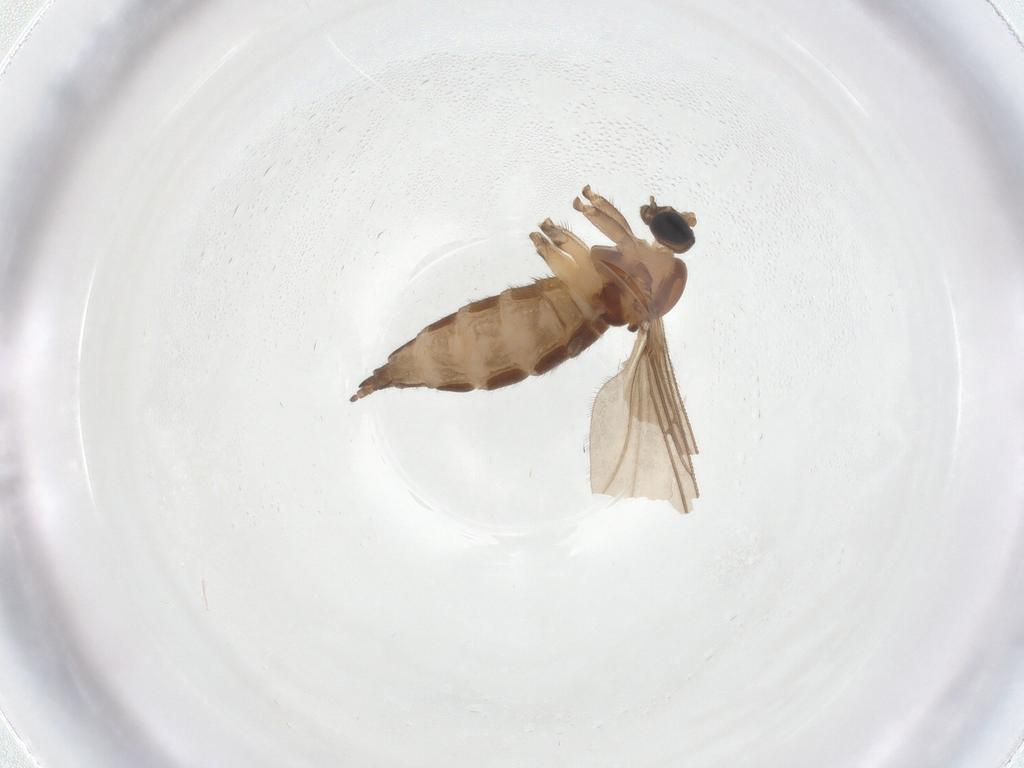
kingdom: Animalia
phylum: Arthropoda
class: Insecta
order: Diptera
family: Sciaridae
